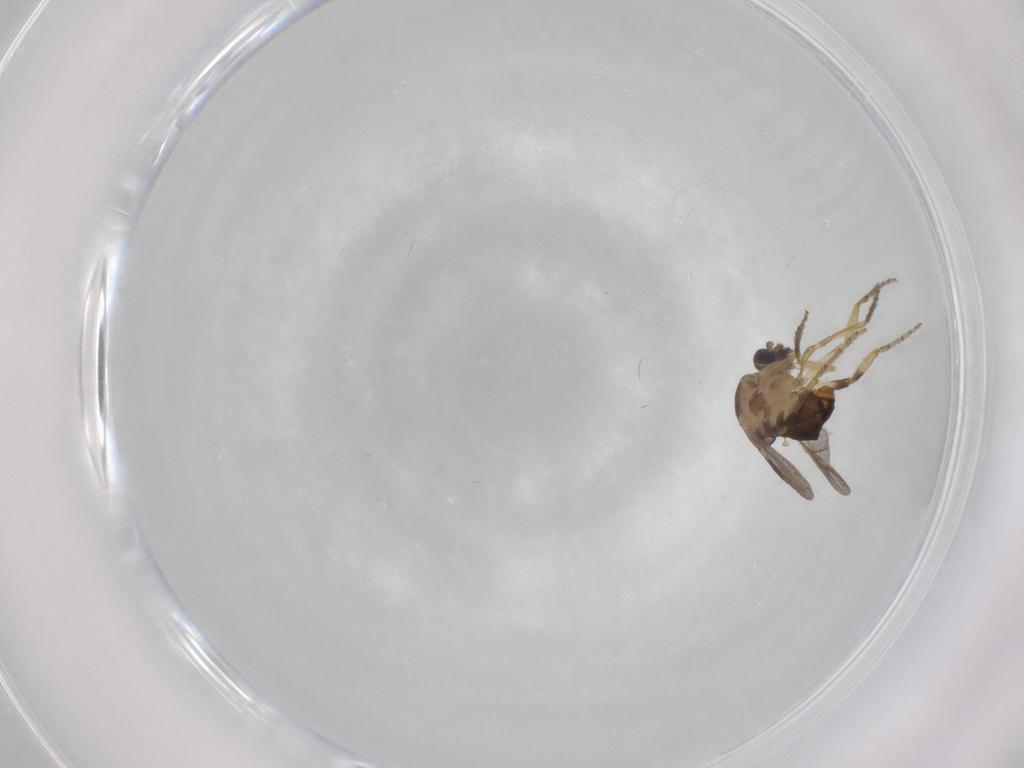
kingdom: Animalia
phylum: Arthropoda
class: Insecta
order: Diptera
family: Ceratopogonidae
